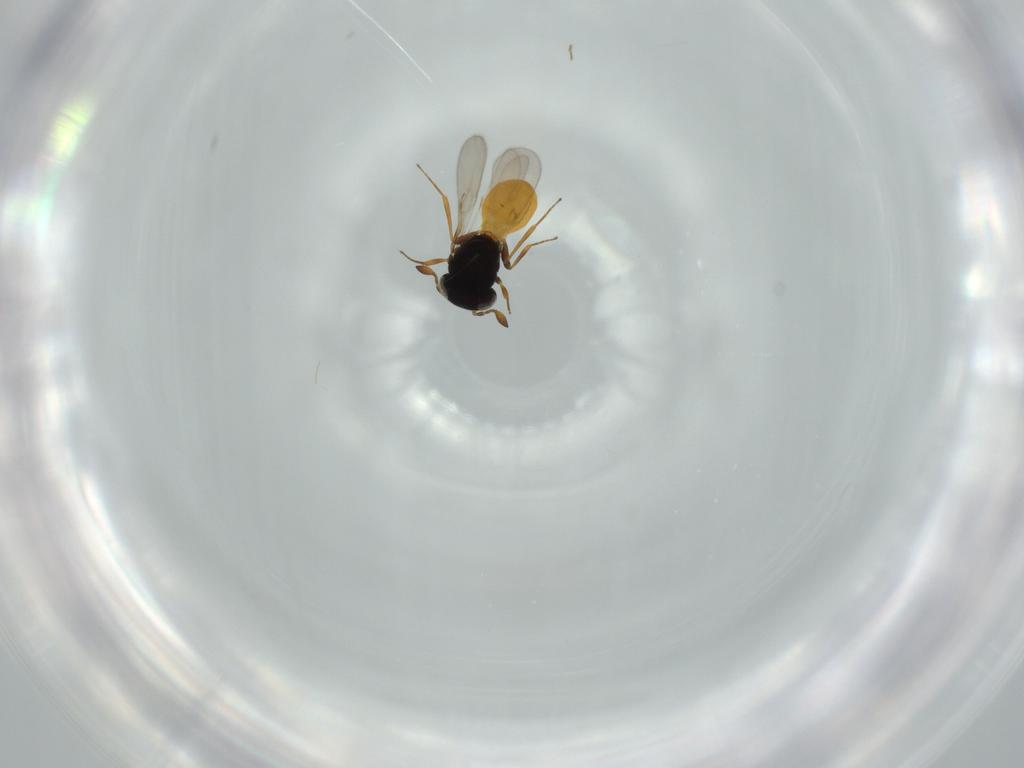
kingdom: Animalia
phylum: Arthropoda
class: Insecta
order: Hymenoptera
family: Scelionidae
